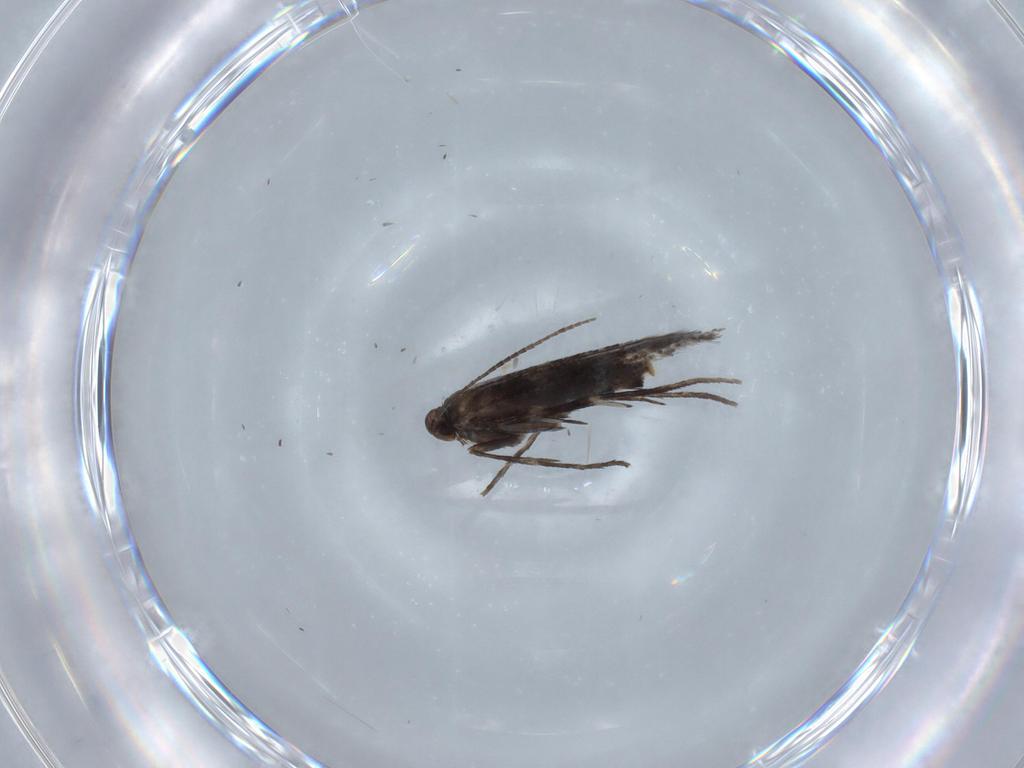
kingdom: Animalia
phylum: Arthropoda
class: Insecta
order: Lepidoptera
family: Gracillariidae
